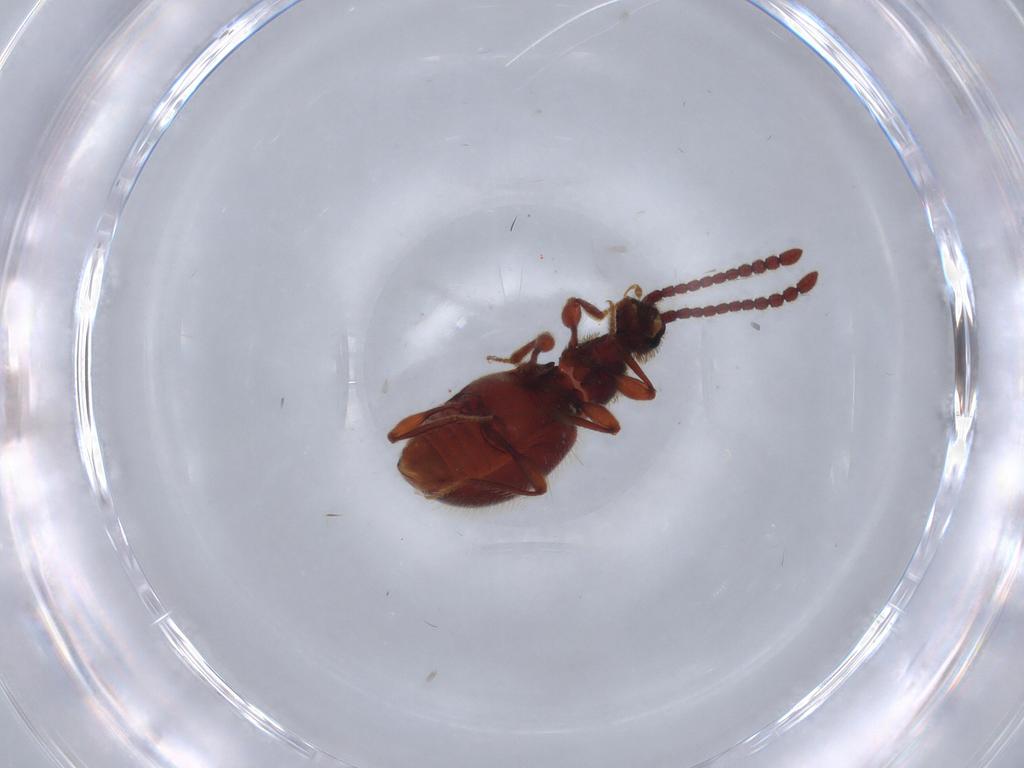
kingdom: Animalia
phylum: Arthropoda
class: Insecta
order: Coleoptera
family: Staphylinidae
